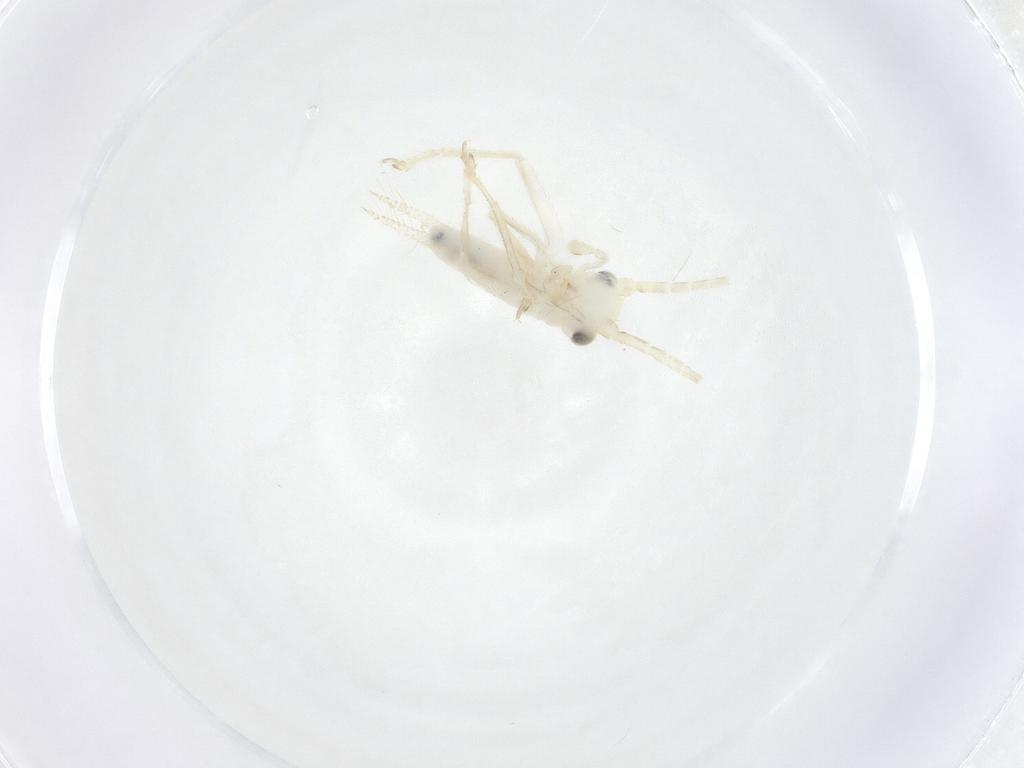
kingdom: Animalia
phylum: Arthropoda
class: Insecta
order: Orthoptera
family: Trigonidiidae
